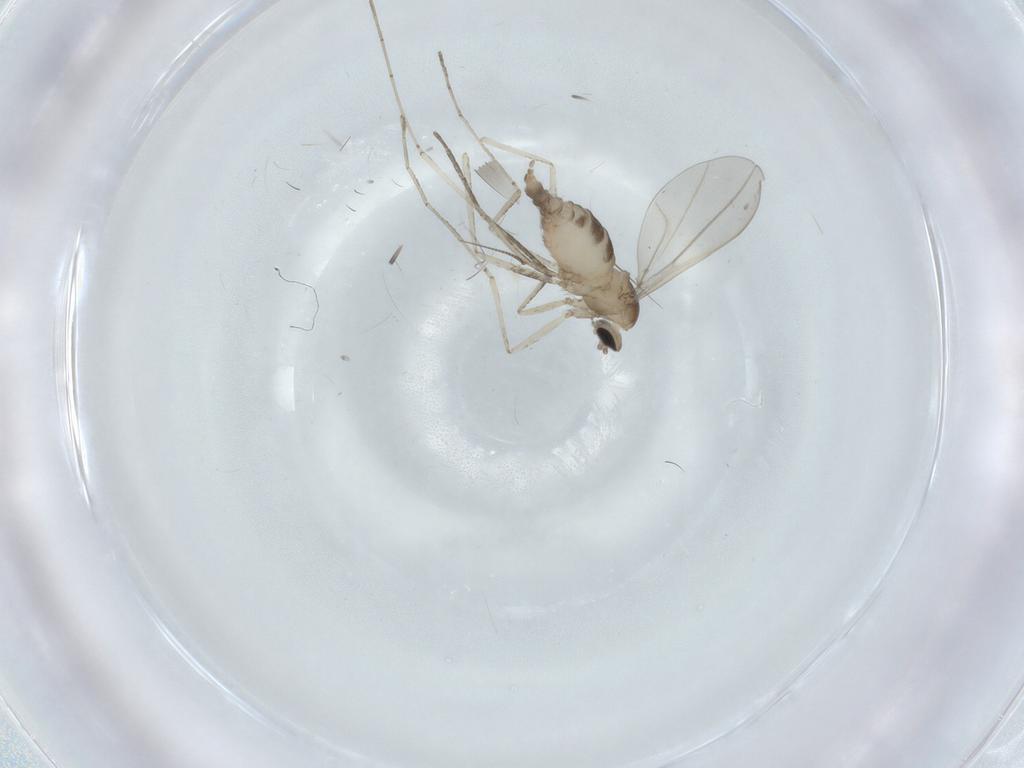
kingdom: Animalia
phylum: Arthropoda
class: Insecta
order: Diptera
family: Cecidomyiidae
